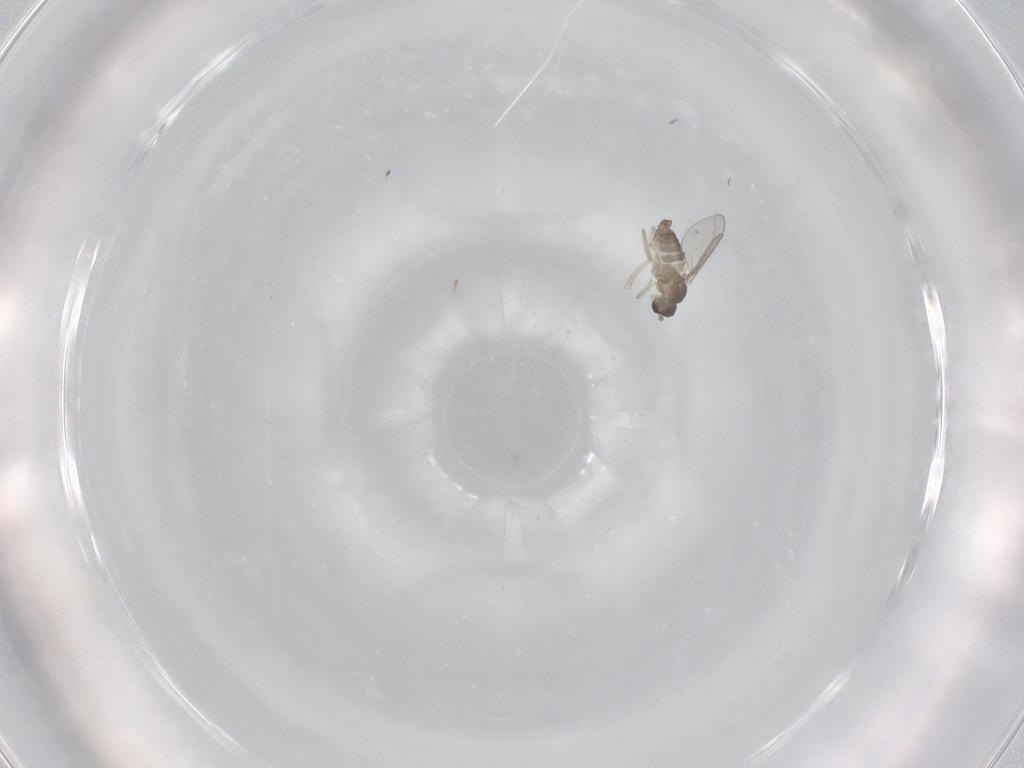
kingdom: Animalia
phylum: Arthropoda
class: Insecta
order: Diptera
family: Cecidomyiidae
